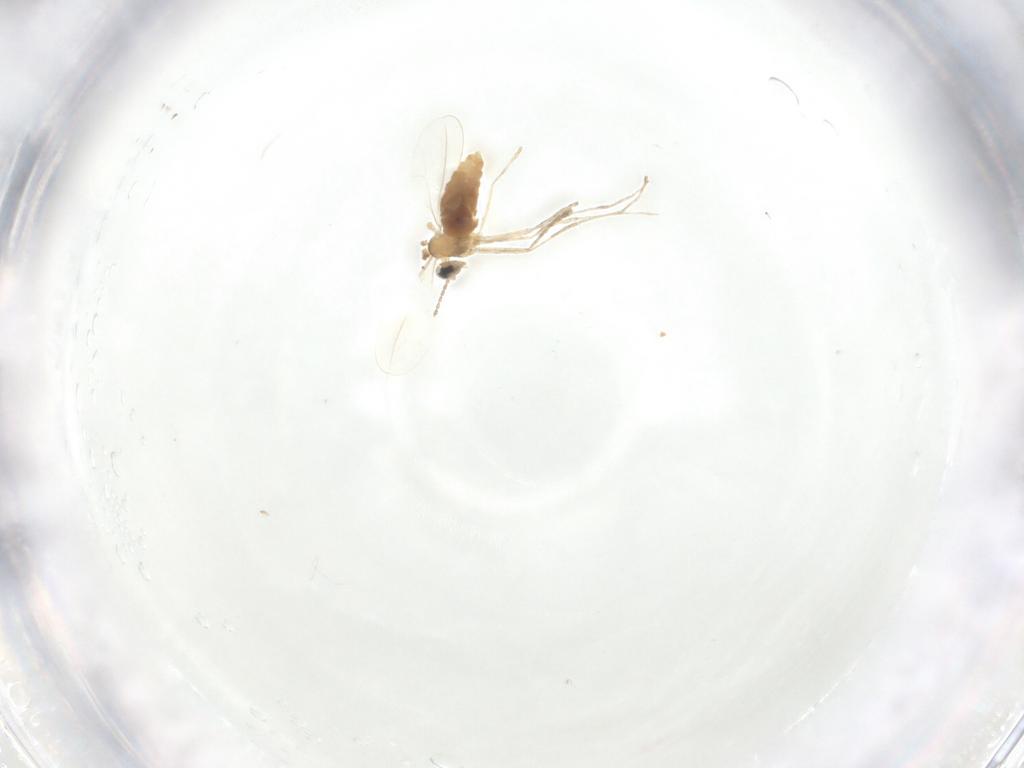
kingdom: Animalia
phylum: Arthropoda
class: Insecta
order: Diptera
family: Cecidomyiidae
